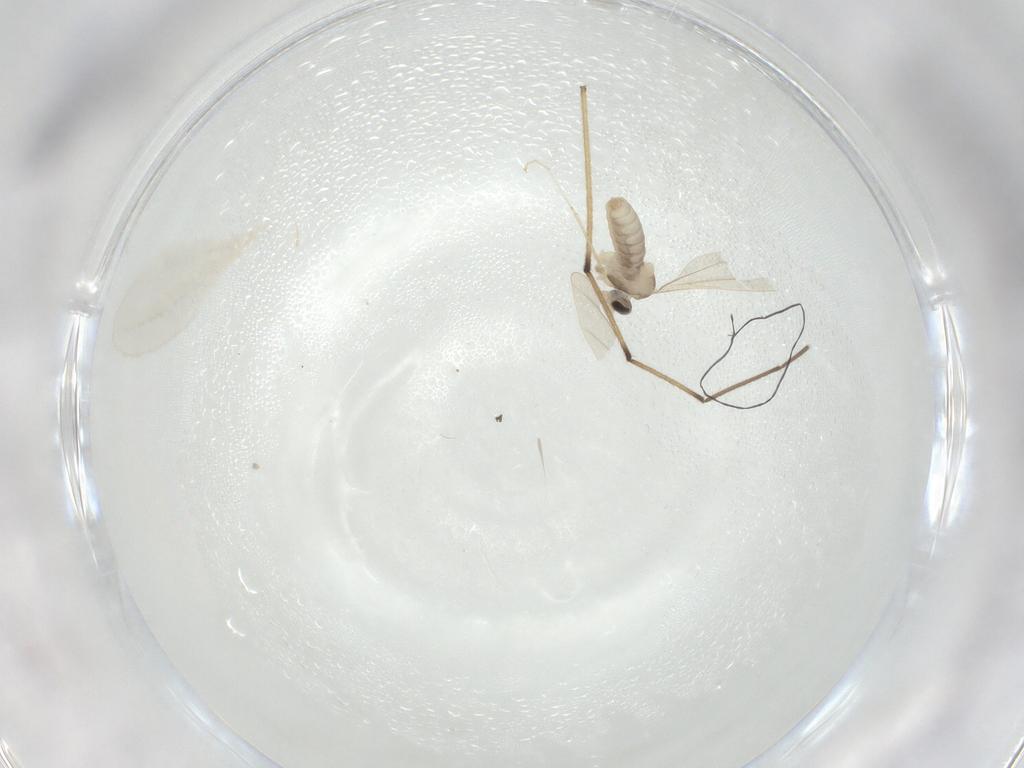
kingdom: Animalia
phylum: Arthropoda
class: Insecta
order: Diptera
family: Cecidomyiidae
